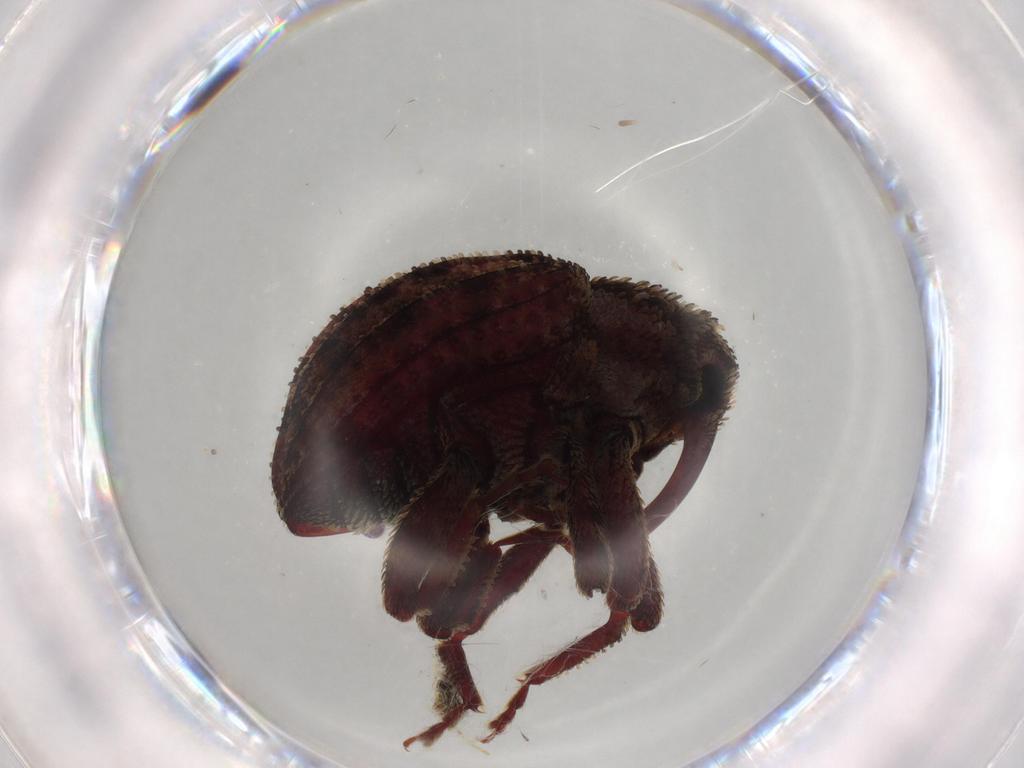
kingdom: Animalia
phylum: Arthropoda
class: Insecta
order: Coleoptera
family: Curculionidae
